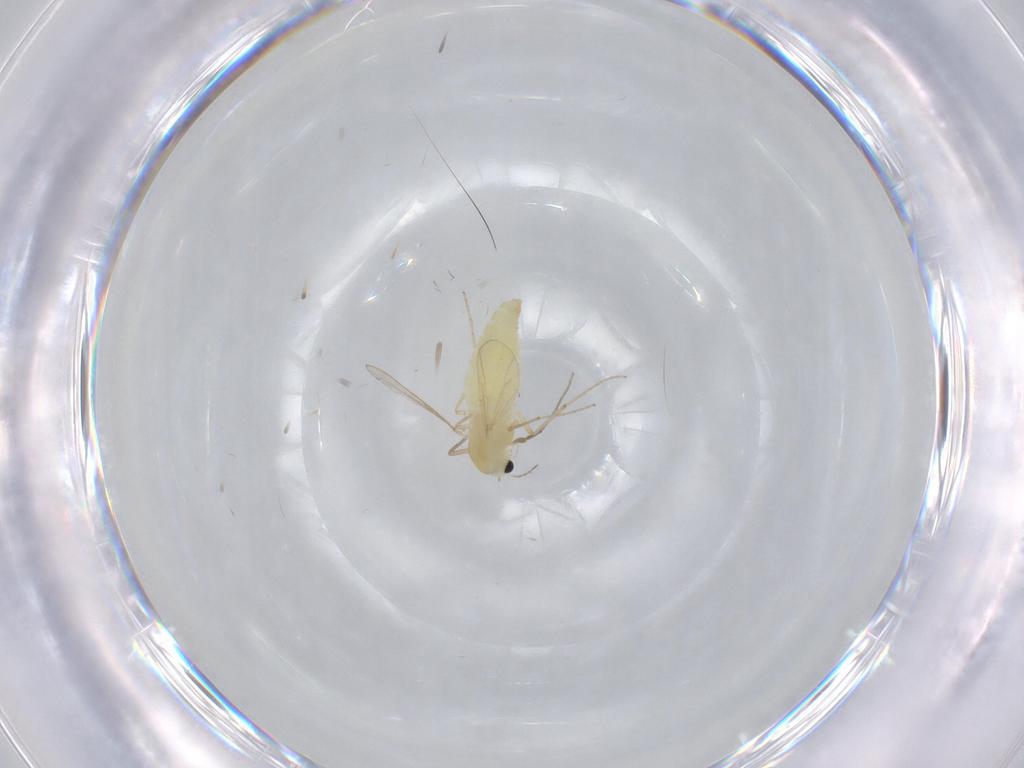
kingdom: Animalia
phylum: Arthropoda
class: Insecta
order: Diptera
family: Chironomidae
